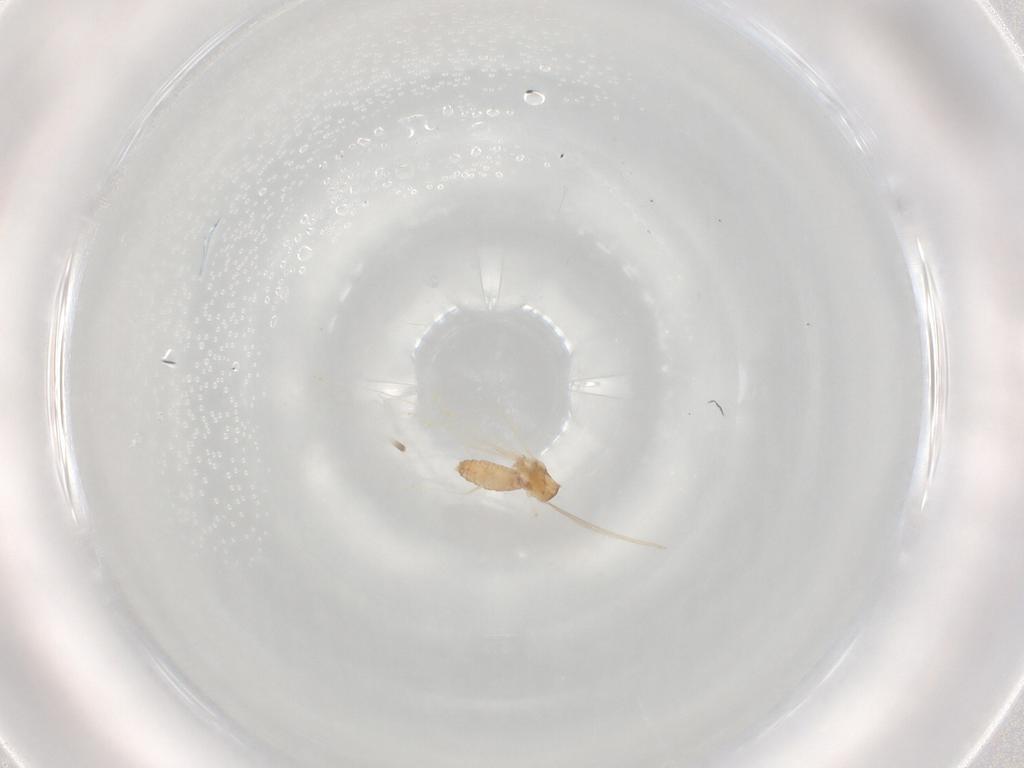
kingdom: Animalia
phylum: Arthropoda
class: Insecta
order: Diptera
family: Cecidomyiidae
